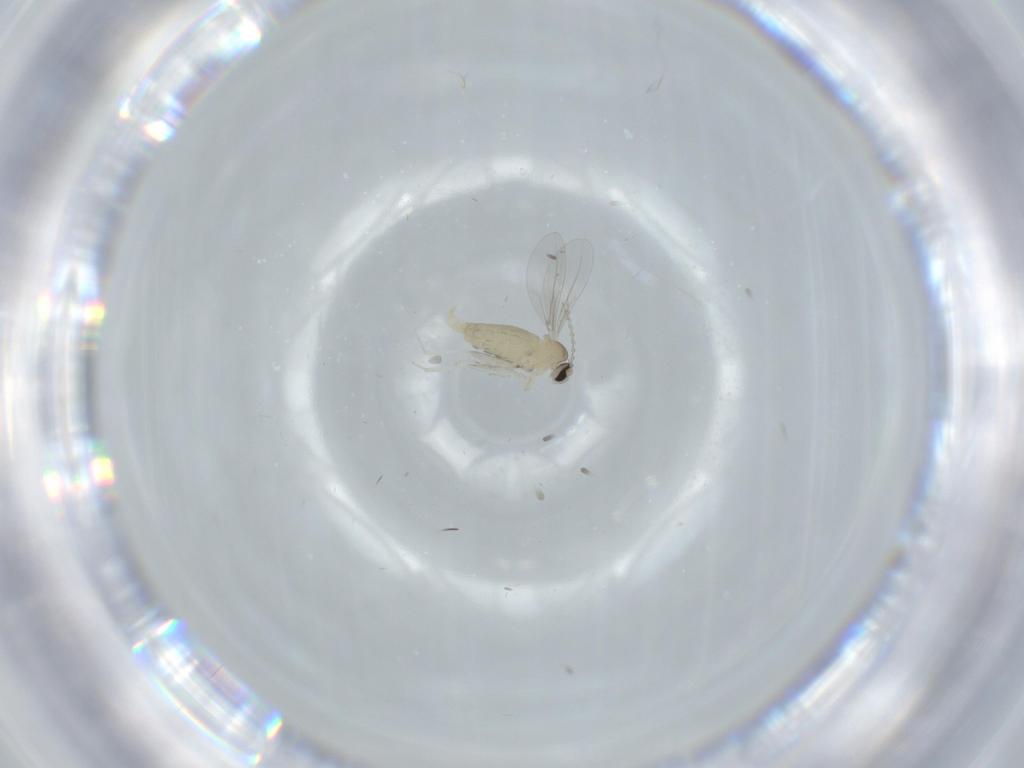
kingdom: Animalia
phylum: Arthropoda
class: Insecta
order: Diptera
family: Cecidomyiidae
